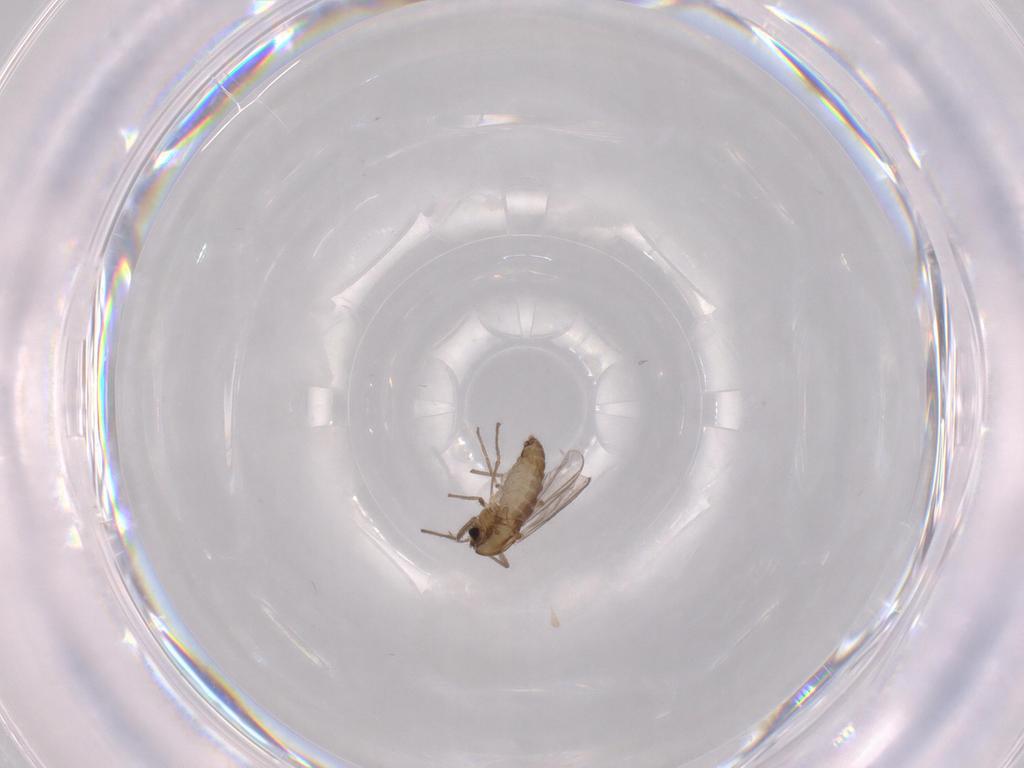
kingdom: Animalia
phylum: Arthropoda
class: Insecta
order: Diptera
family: Chironomidae
